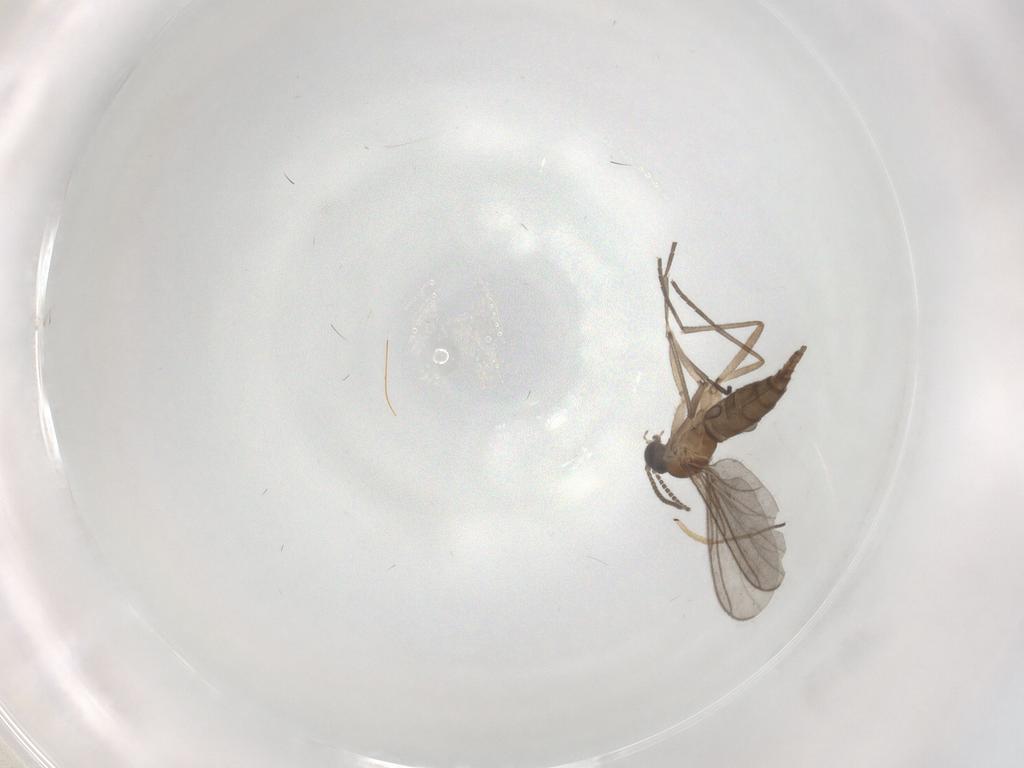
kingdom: Animalia
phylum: Arthropoda
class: Insecta
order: Diptera
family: Sciaridae
